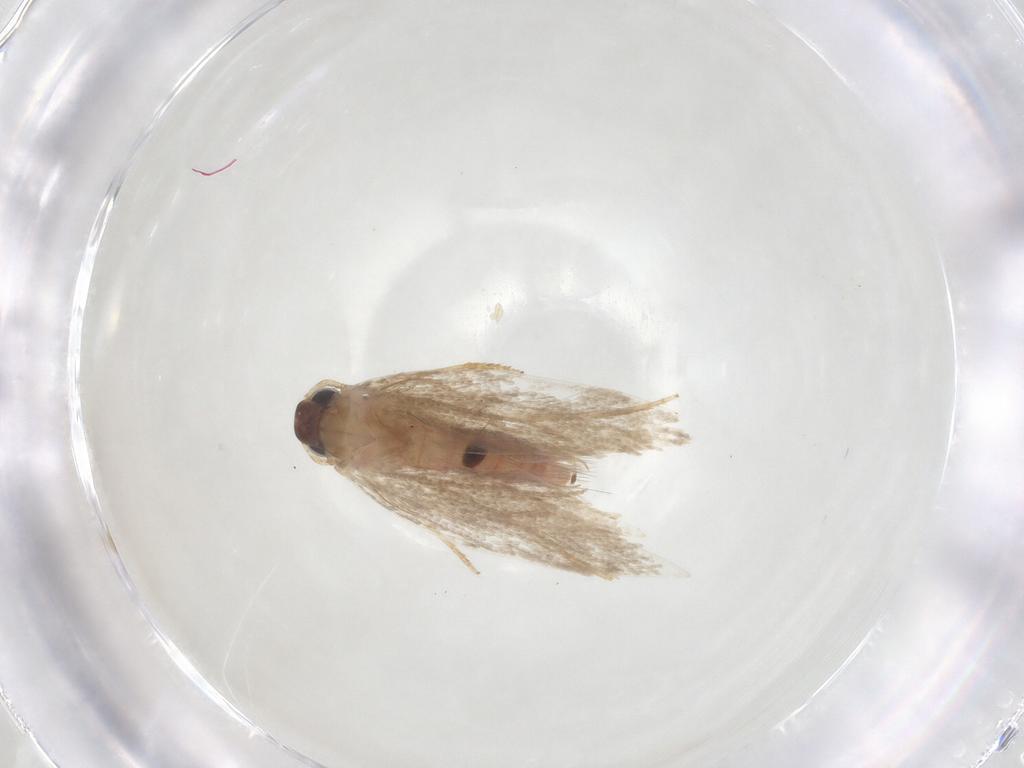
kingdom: Animalia
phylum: Arthropoda
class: Insecta
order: Lepidoptera
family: Gelechiidae
